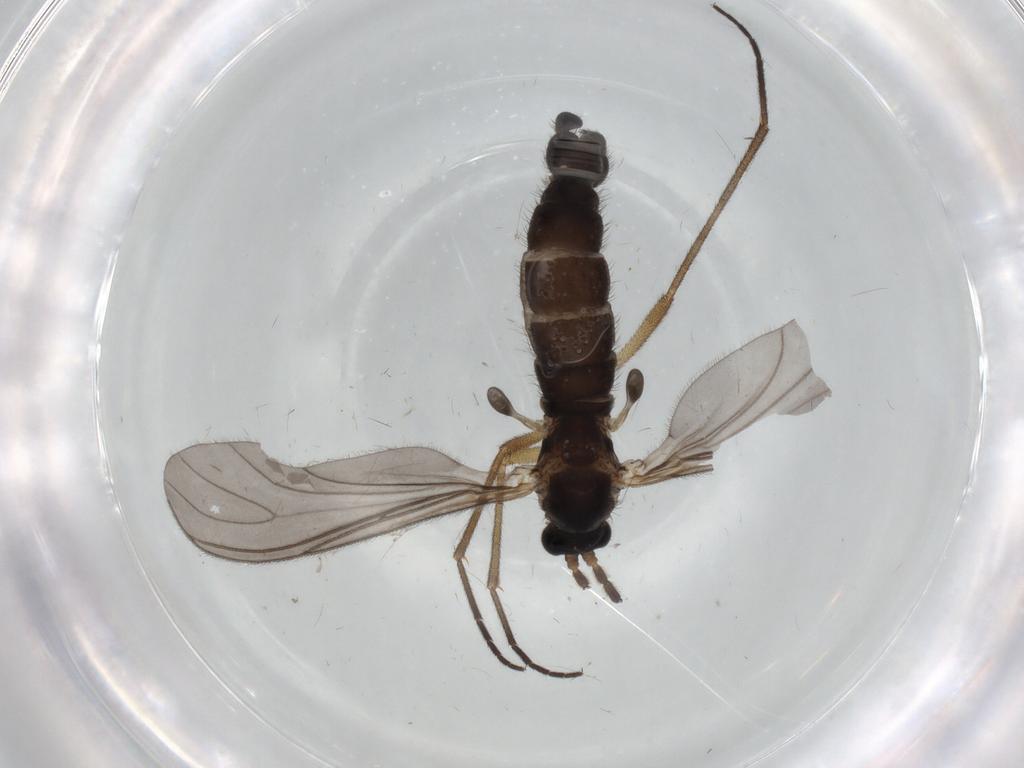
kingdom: Animalia
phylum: Arthropoda
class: Insecta
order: Diptera
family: Sciaridae
